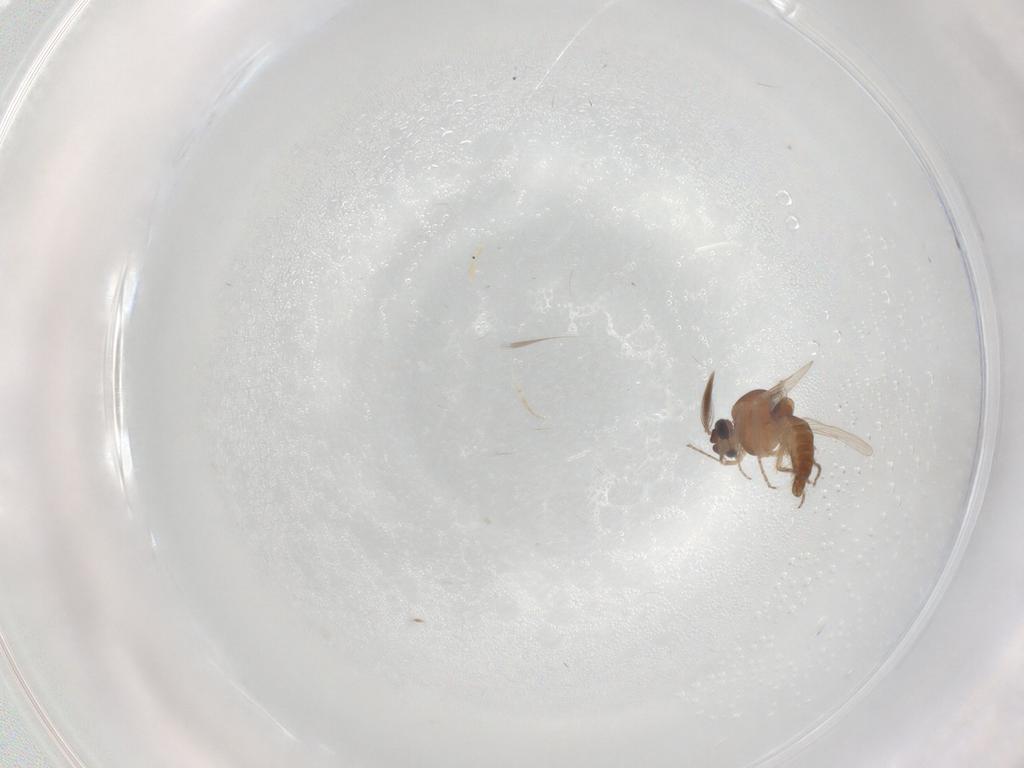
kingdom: Animalia
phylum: Arthropoda
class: Insecta
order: Diptera
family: Ceratopogonidae
